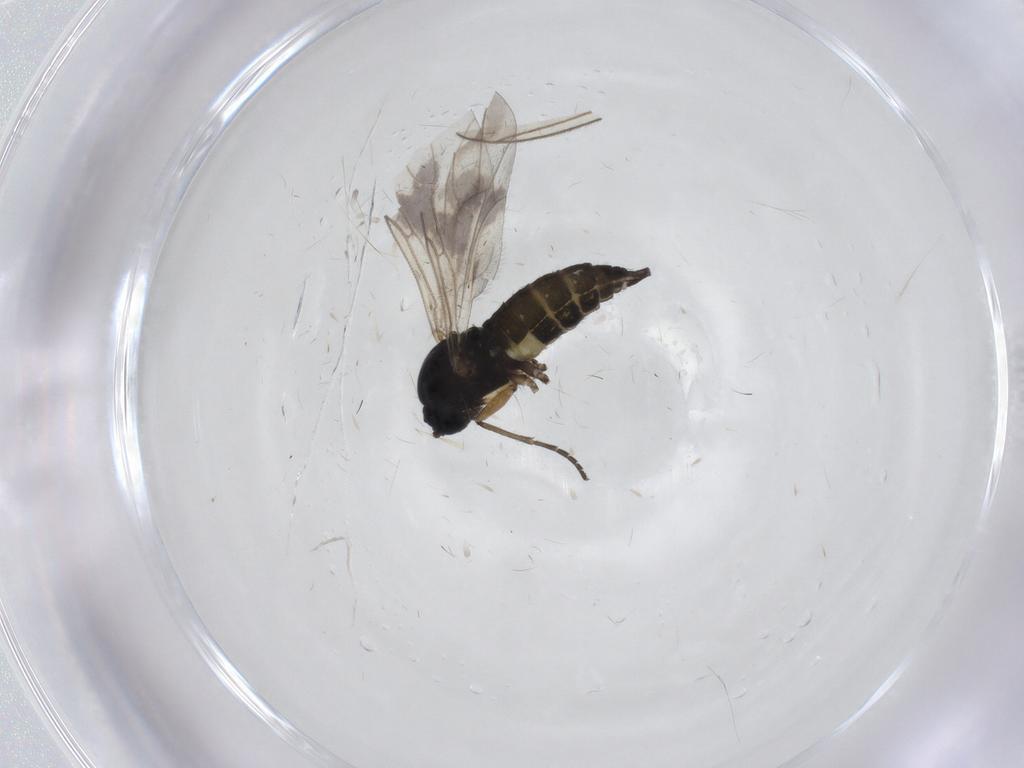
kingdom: Animalia
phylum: Arthropoda
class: Insecta
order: Diptera
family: Sciaridae
